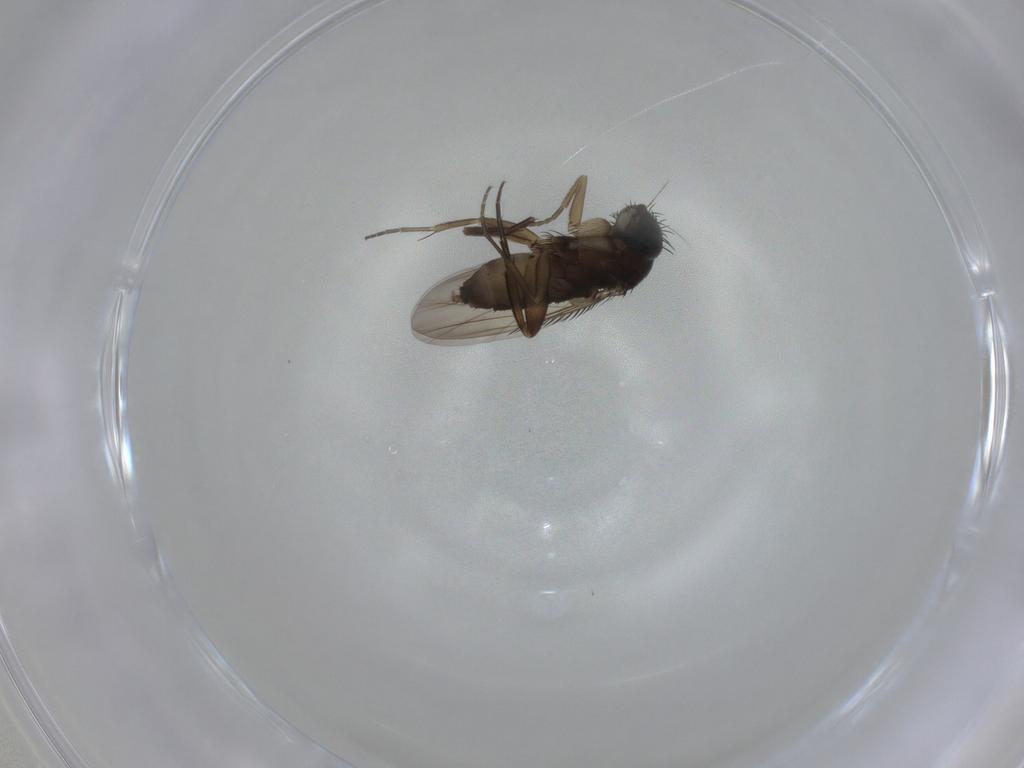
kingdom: Animalia
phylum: Arthropoda
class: Insecta
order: Diptera
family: Phoridae
